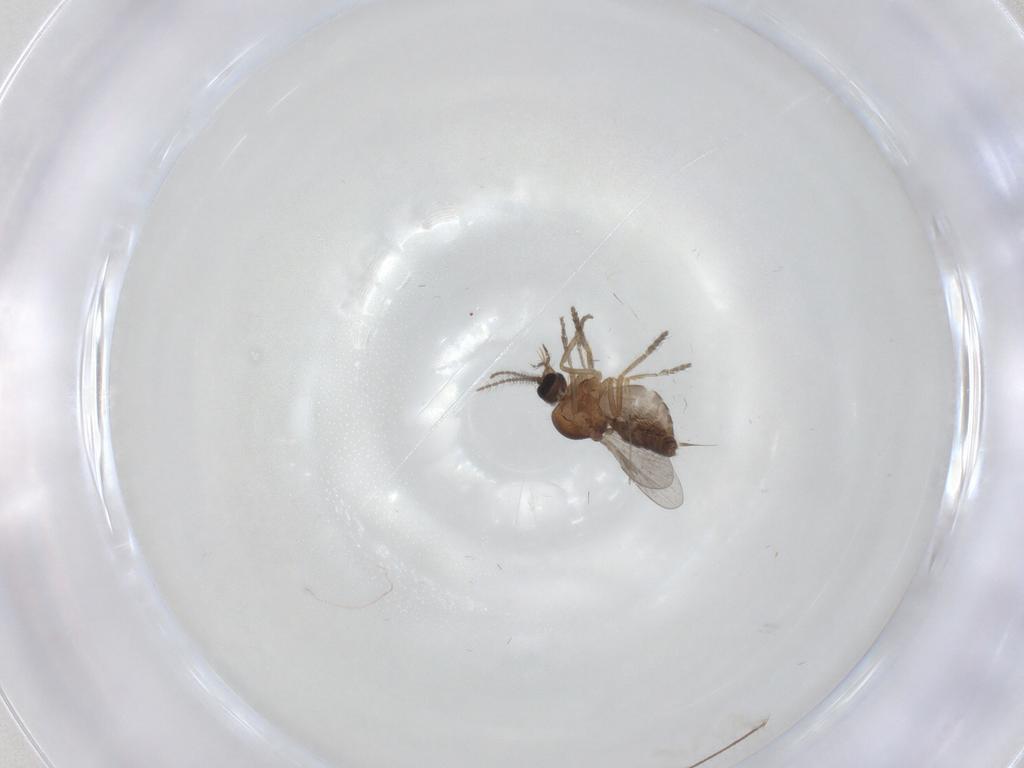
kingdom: Animalia
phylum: Arthropoda
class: Insecta
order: Diptera
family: Ceratopogonidae
